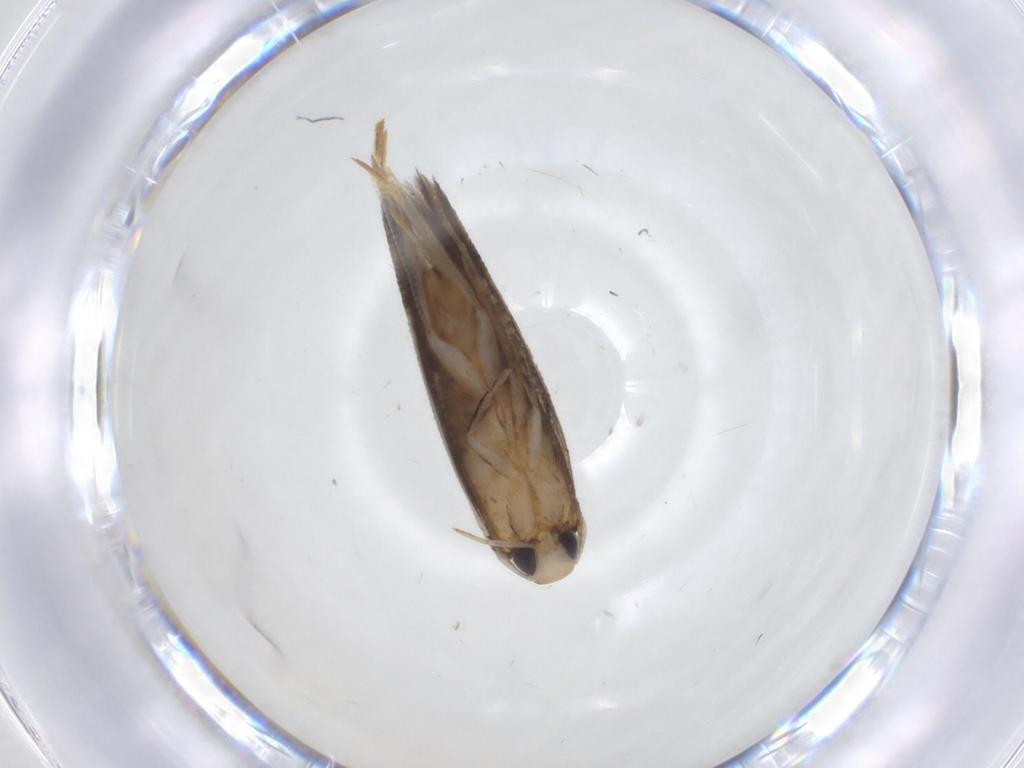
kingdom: Animalia
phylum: Arthropoda
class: Insecta
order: Lepidoptera
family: Cosmopterigidae
